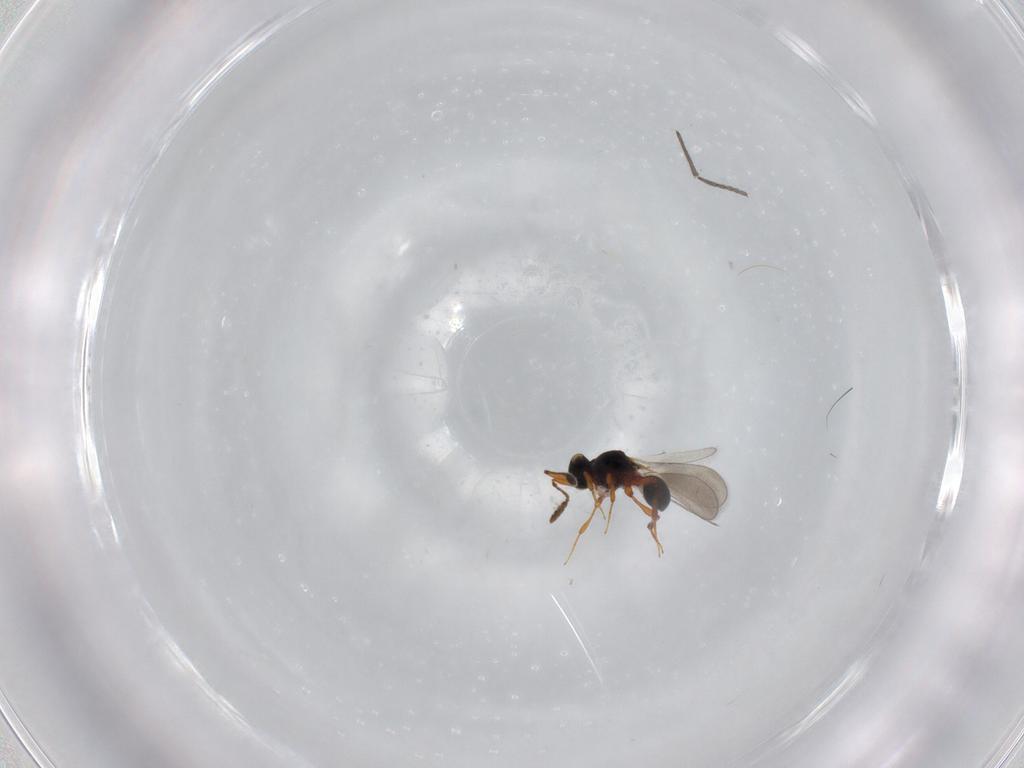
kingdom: Animalia
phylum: Arthropoda
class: Insecta
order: Hymenoptera
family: Platygastridae
